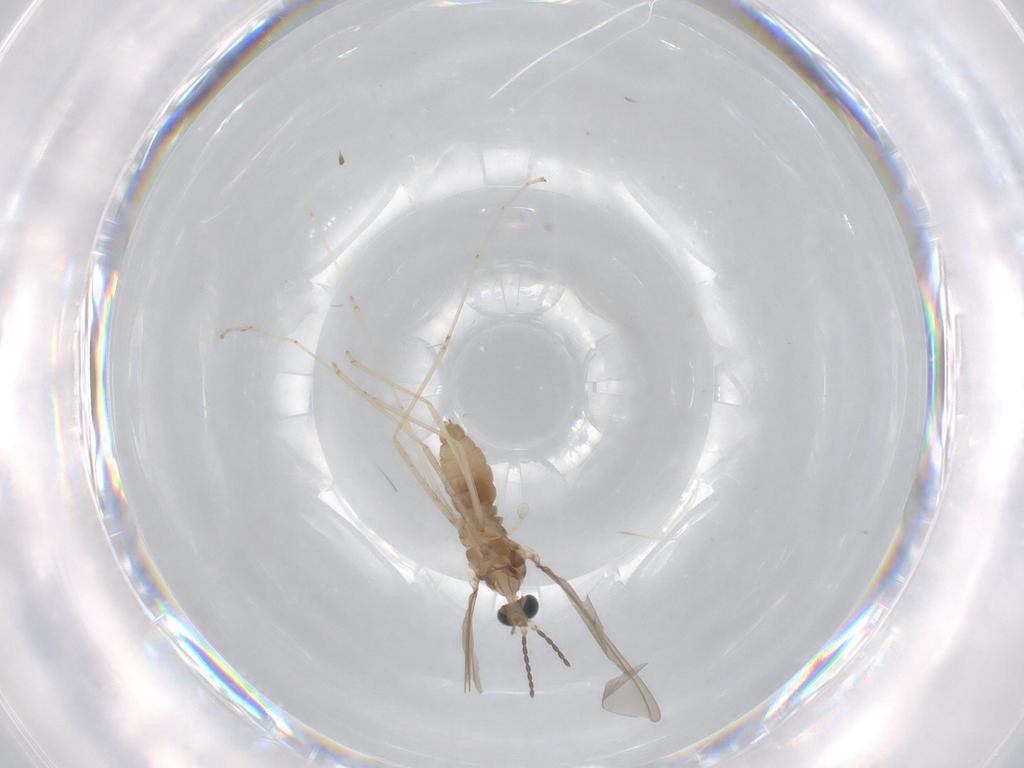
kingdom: Animalia
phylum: Arthropoda
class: Insecta
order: Diptera
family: Cecidomyiidae
